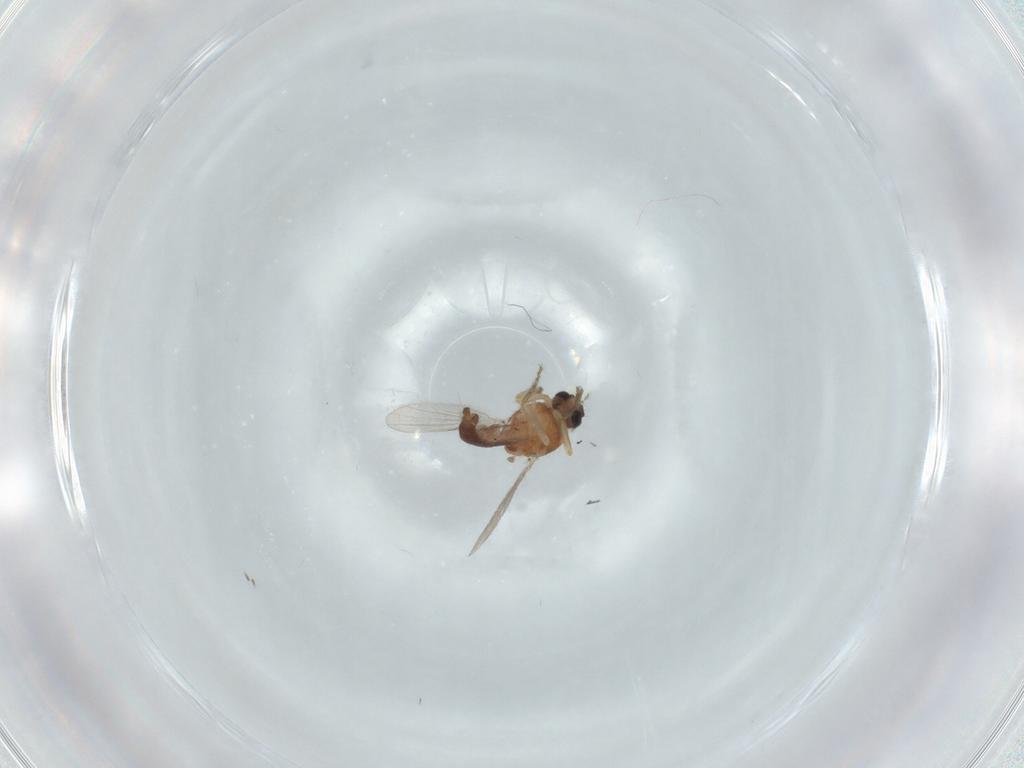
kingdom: Animalia
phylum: Arthropoda
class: Insecta
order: Diptera
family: Ceratopogonidae
